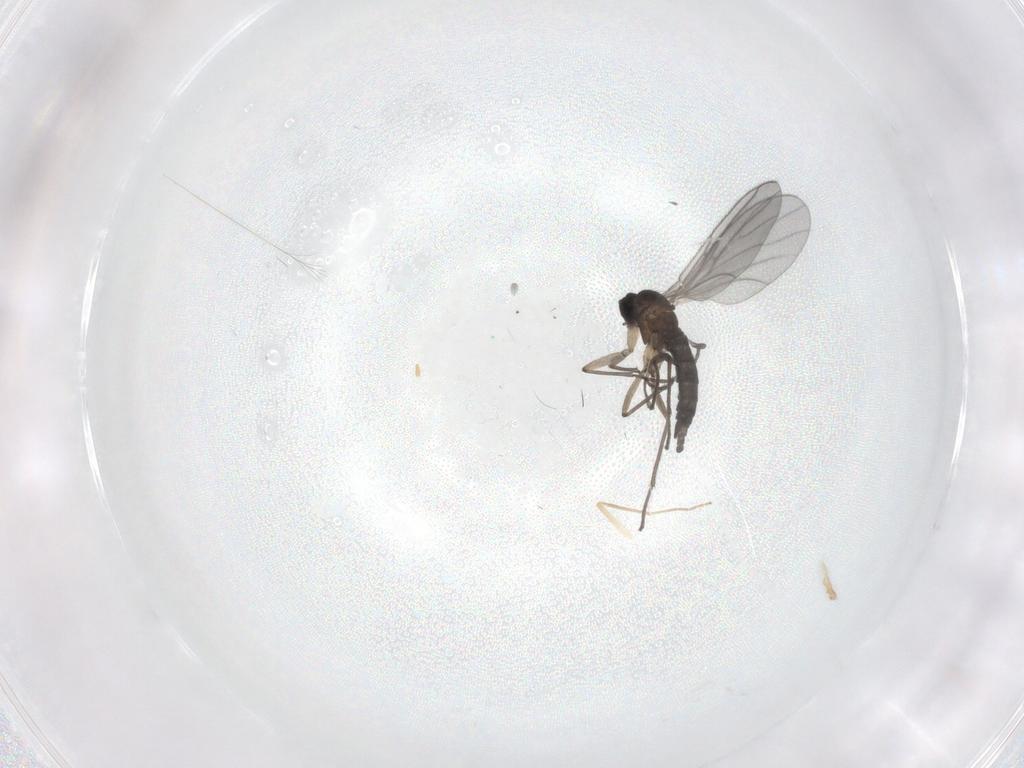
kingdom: Animalia
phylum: Arthropoda
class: Insecta
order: Diptera
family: Sciaridae
